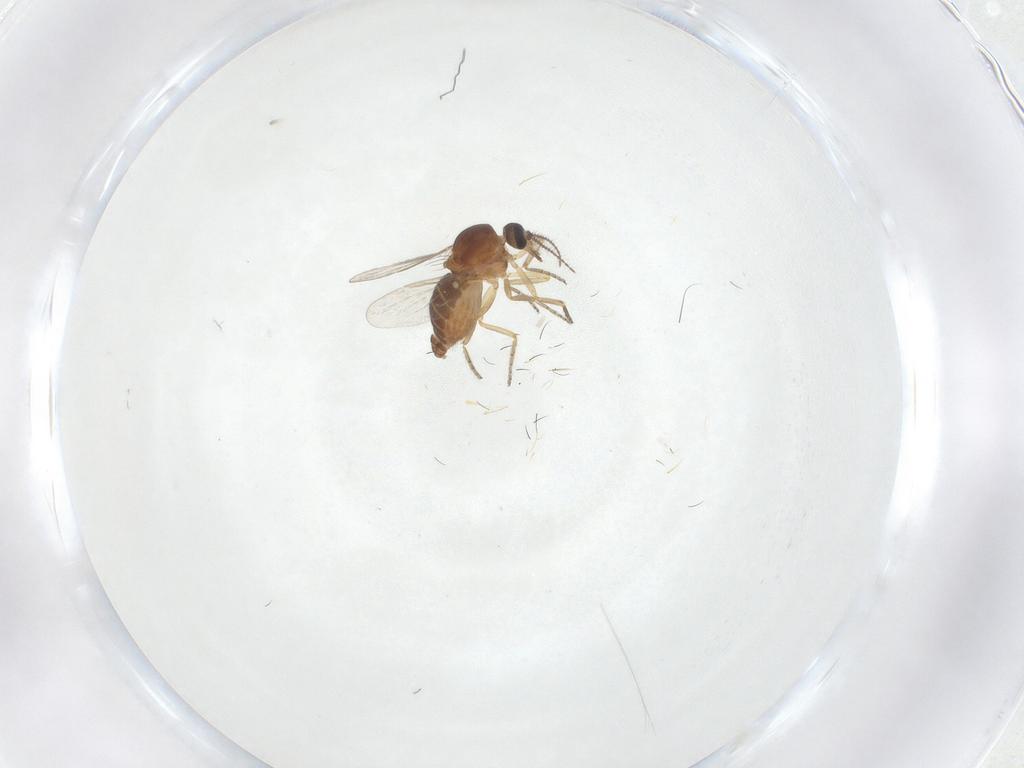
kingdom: Animalia
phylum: Arthropoda
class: Insecta
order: Diptera
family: Ceratopogonidae
